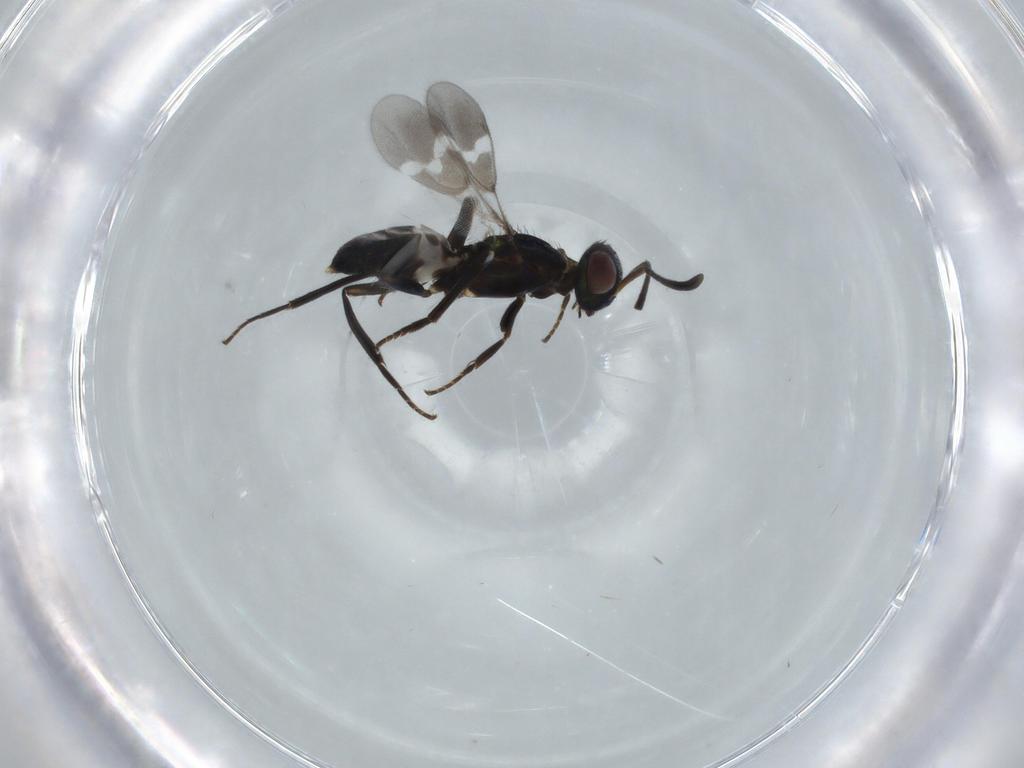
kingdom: Animalia
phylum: Arthropoda
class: Insecta
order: Hymenoptera
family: Eupelmidae
